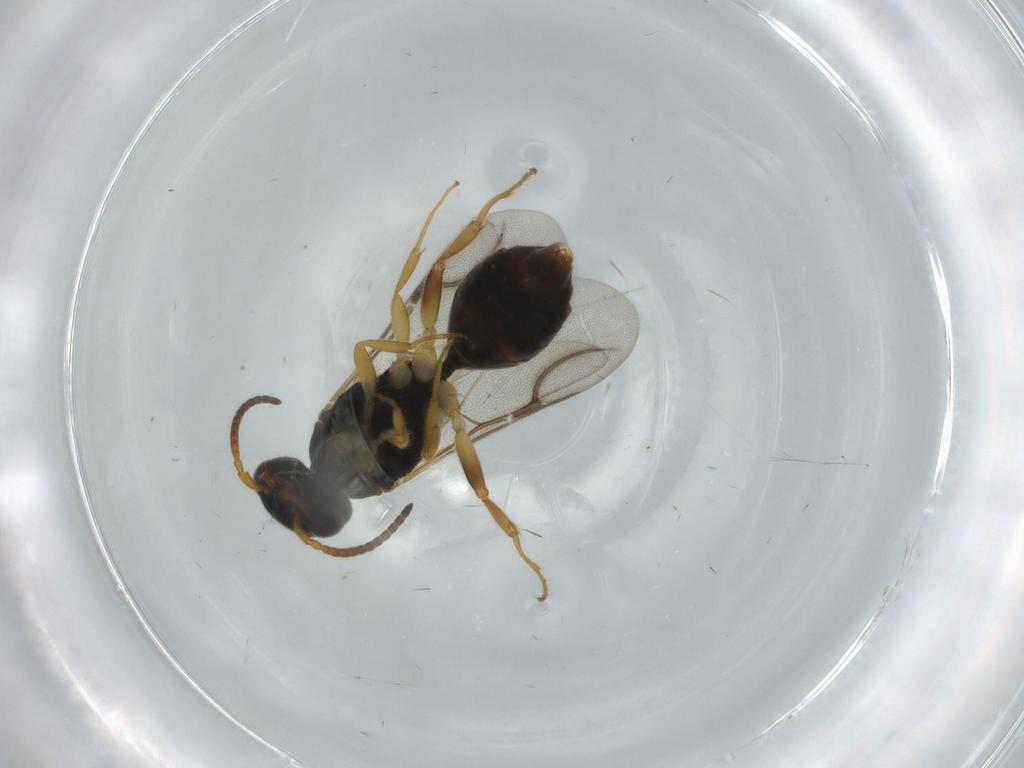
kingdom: Animalia
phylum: Arthropoda
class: Insecta
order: Hymenoptera
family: Bethylidae
